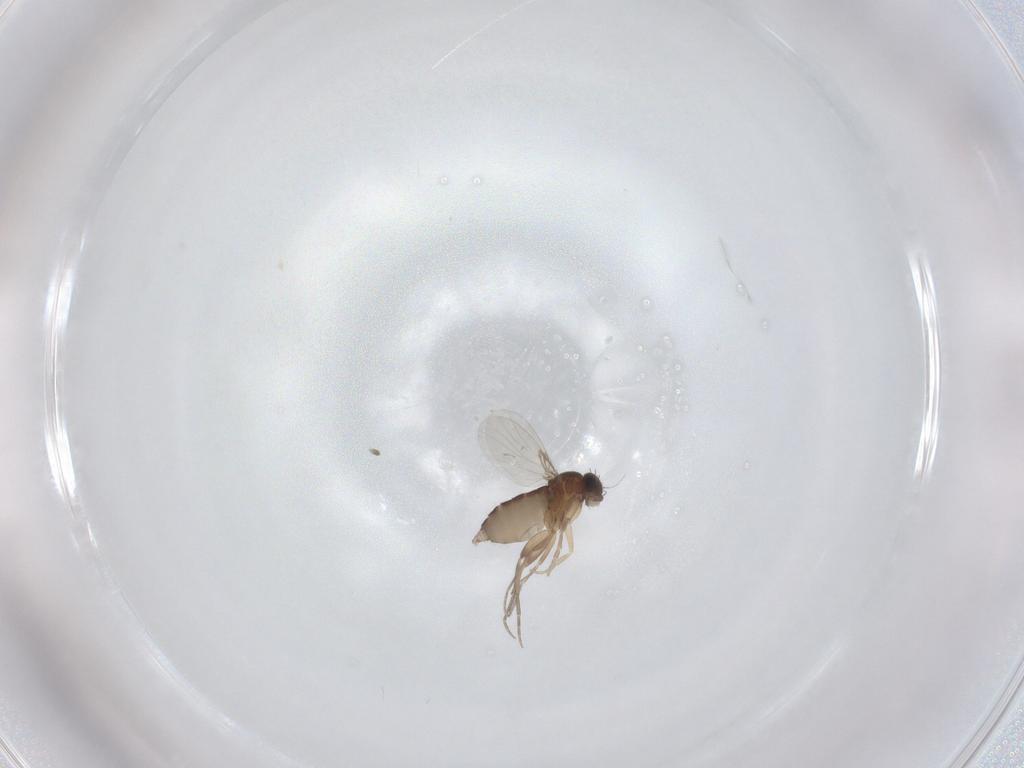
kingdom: Animalia
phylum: Arthropoda
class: Insecta
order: Diptera
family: Phoridae
